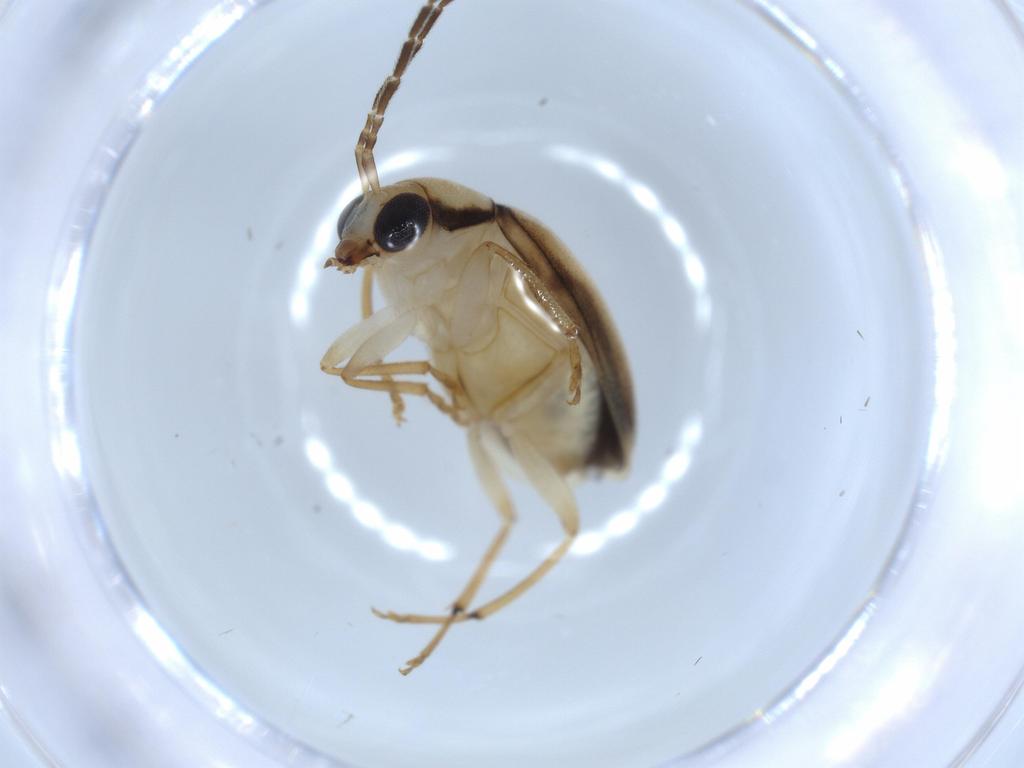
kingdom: Animalia
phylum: Arthropoda
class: Insecta
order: Coleoptera
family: Chrysomelidae
